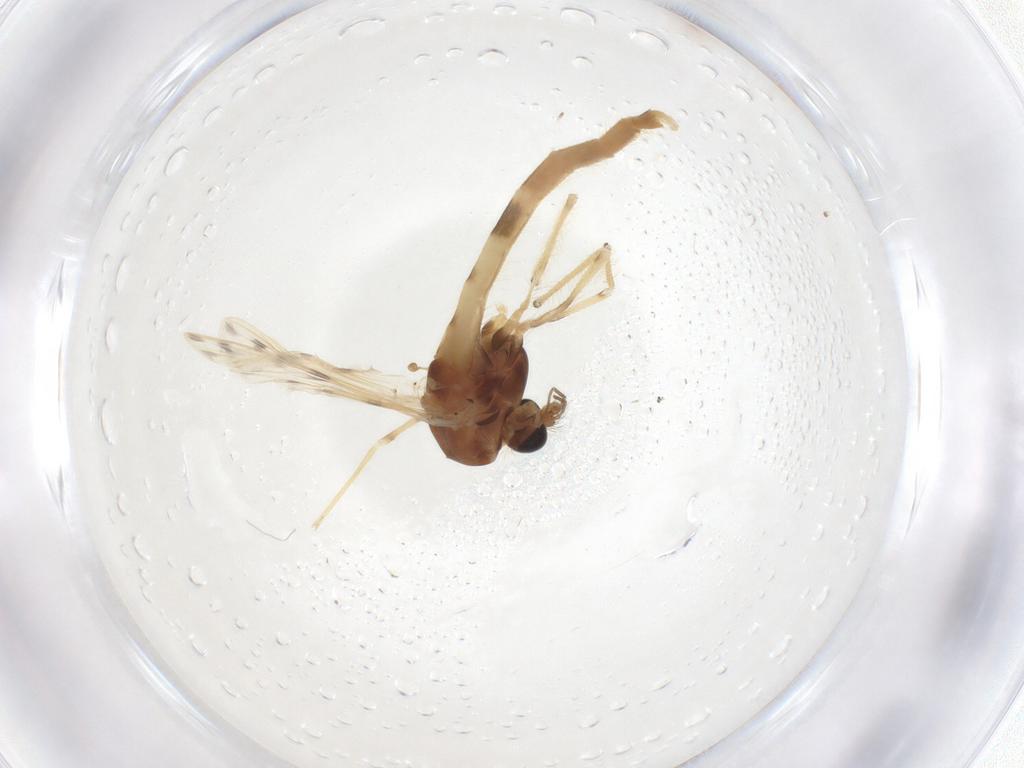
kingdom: Animalia
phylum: Arthropoda
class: Insecta
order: Diptera
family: Chironomidae
